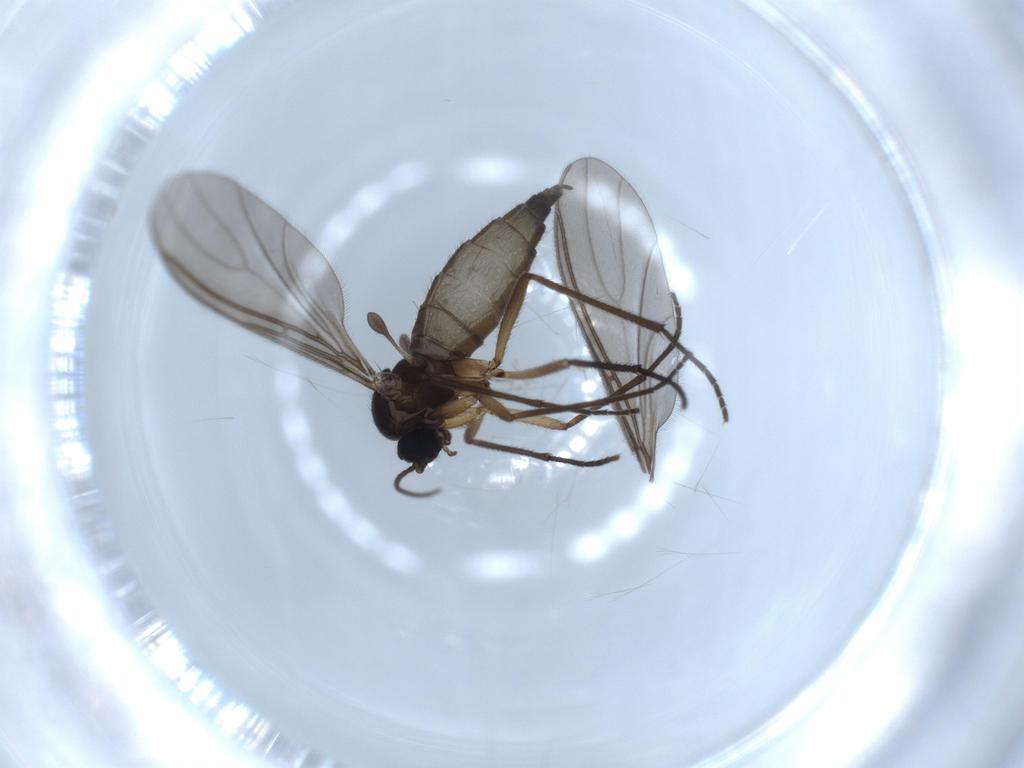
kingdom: Animalia
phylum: Arthropoda
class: Insecta
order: Diptera
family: Sciaridae
